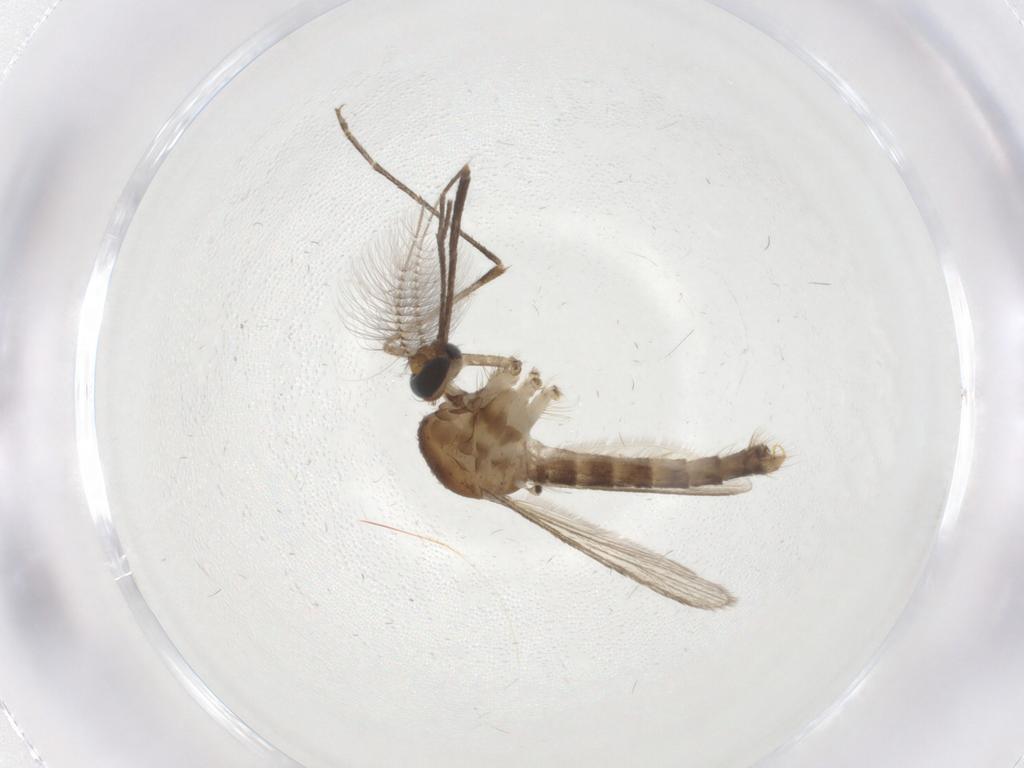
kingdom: Animalia
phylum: Arthropoda
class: Insecta
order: Diptera
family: Culicidae
